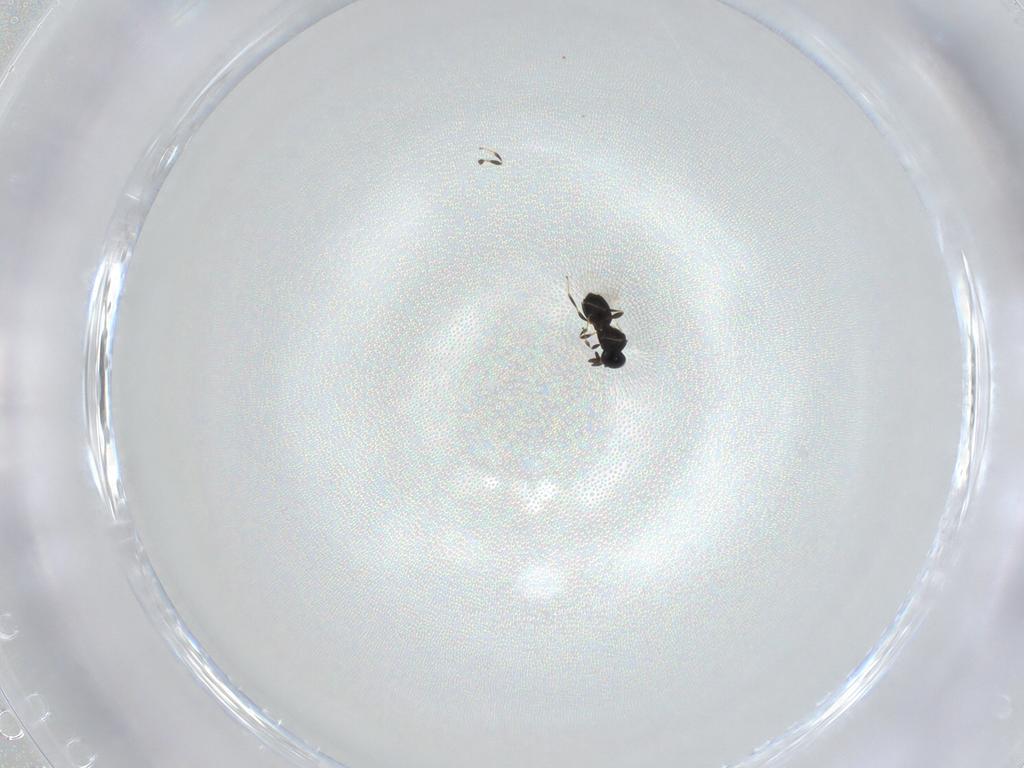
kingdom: Animalia
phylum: Arthropoda
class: Insecta
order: Hymenoptera
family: Platygastridae
